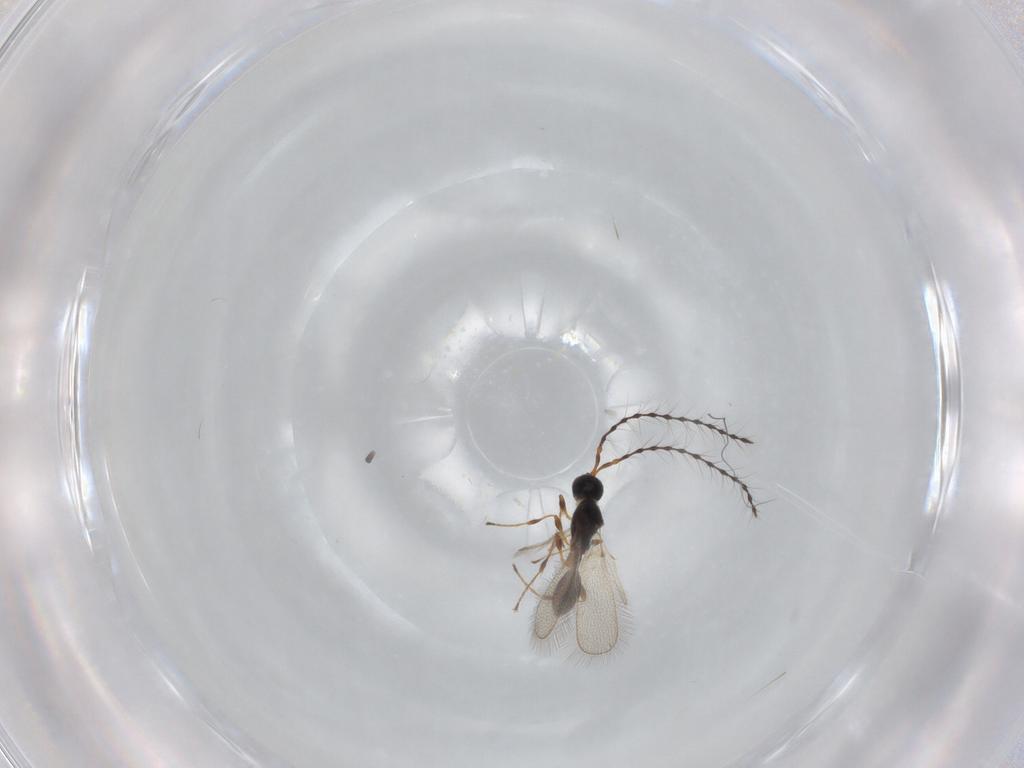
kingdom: Animalia
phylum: Arthropoda
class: Insecta
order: Hymenoptera
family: Diapriidae
